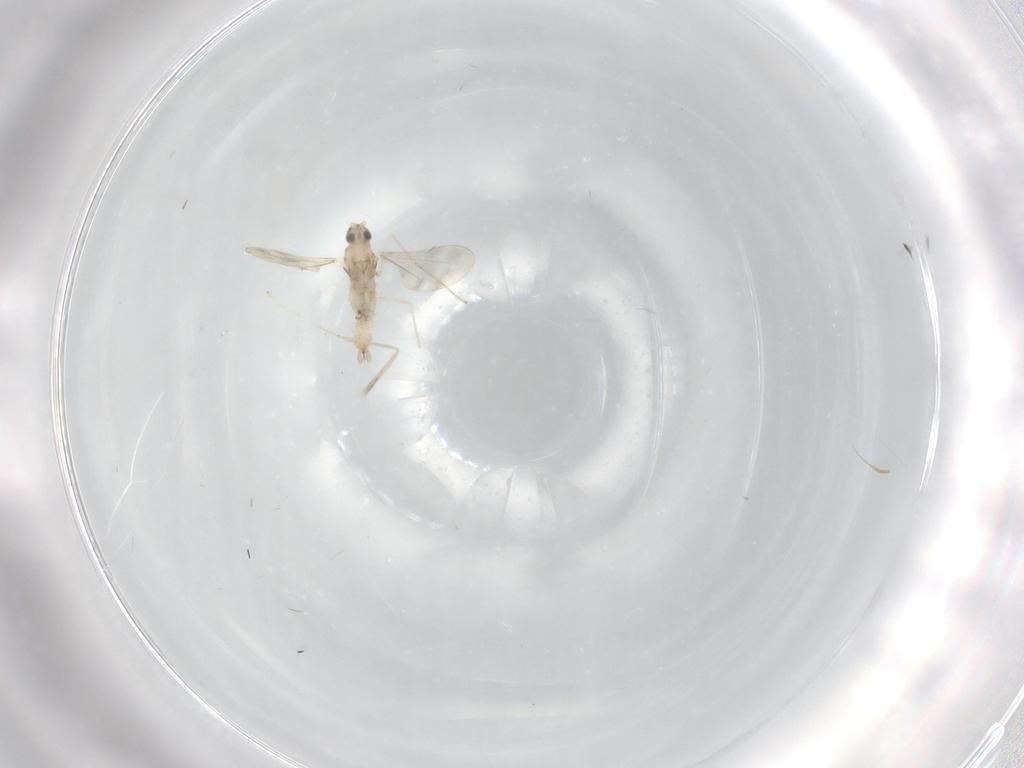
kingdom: Animalia
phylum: Arthropoda
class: Insecta
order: Diptera
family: Cecidomyiidae
